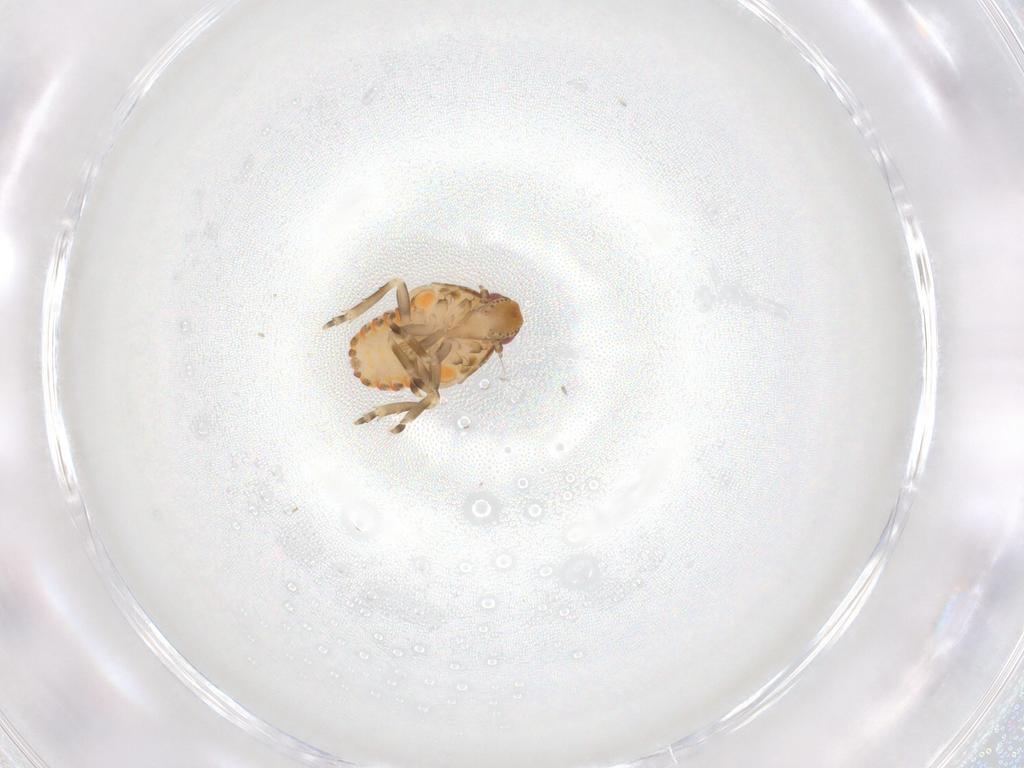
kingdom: Animalia
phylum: Arthropoda
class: Insecta
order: Hemiptera
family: Flatidae
